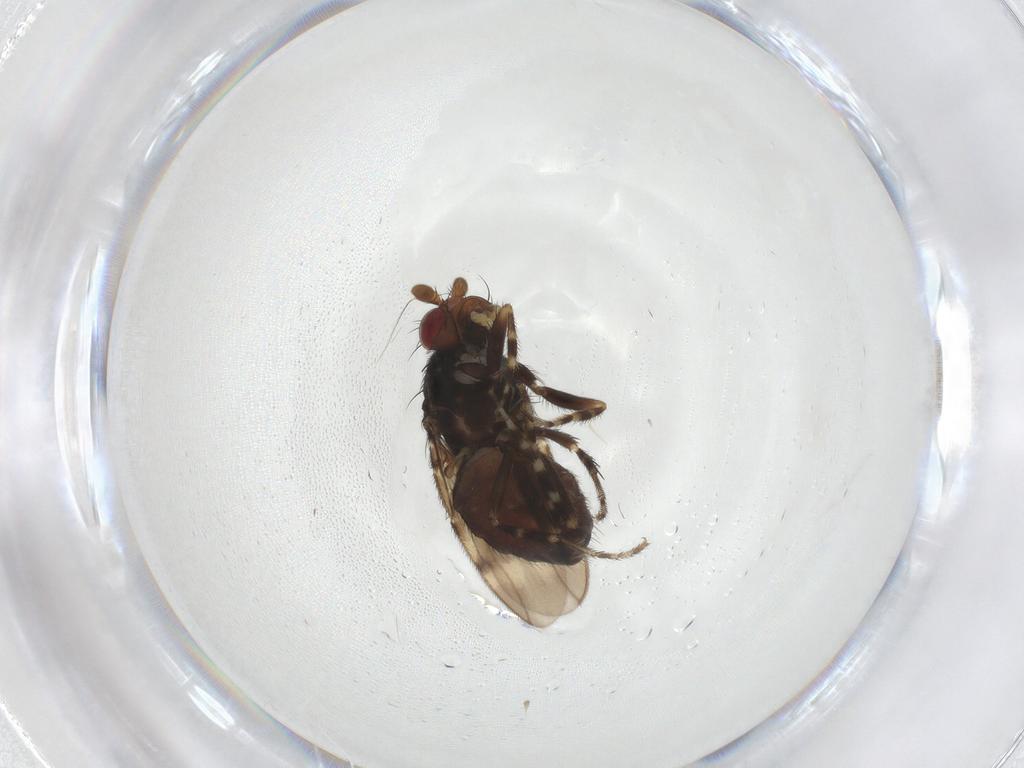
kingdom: Animalia
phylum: Arthropoda
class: Insecta
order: Diptera
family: Sphaeroceridae
